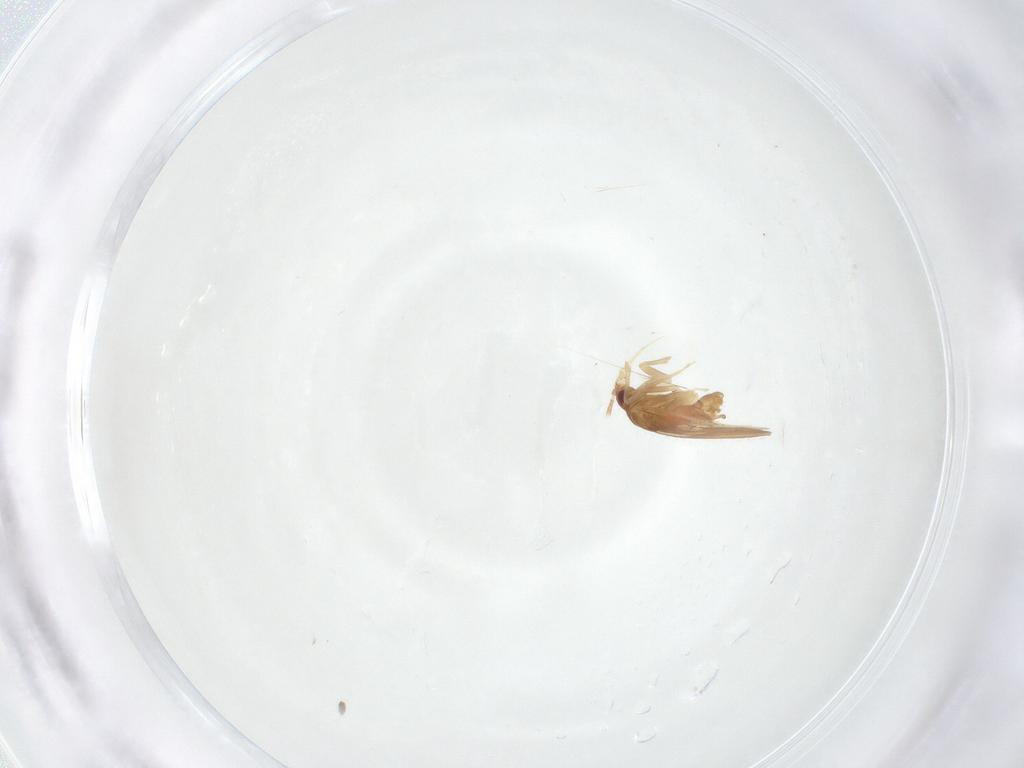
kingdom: Animalia
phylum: Arthropoda
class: Insecta
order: Hemiptera
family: Ceratocombidae
